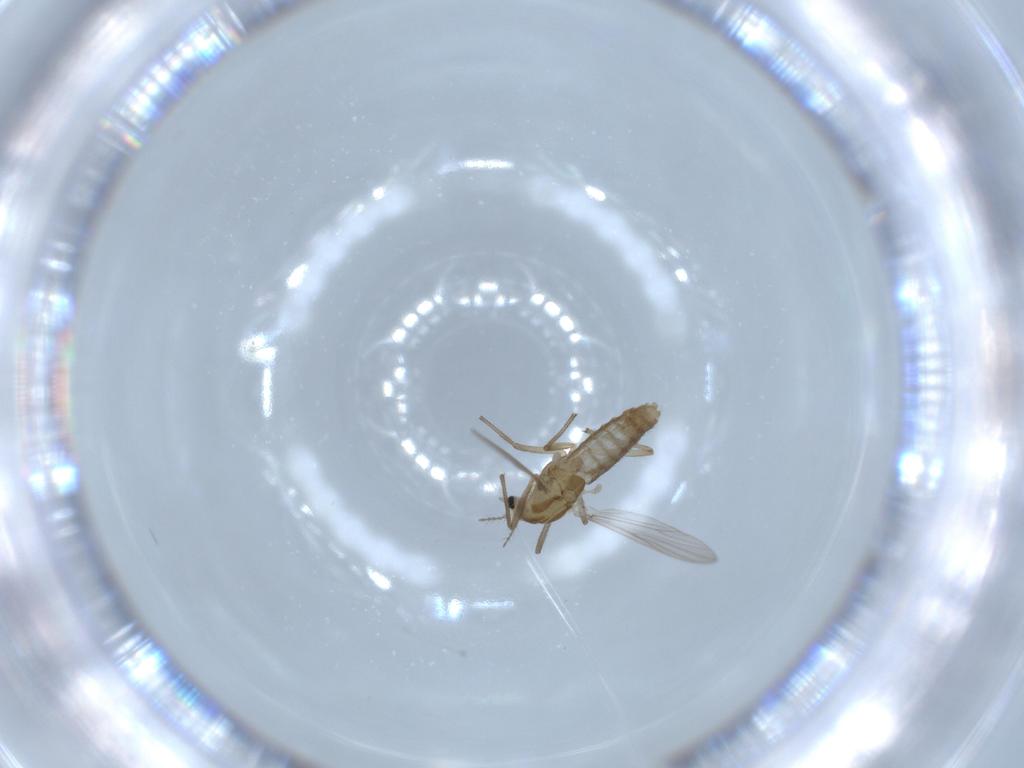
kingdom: Animalia
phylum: Arthropoda
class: Insecta
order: Diptera
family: Chironomidae
